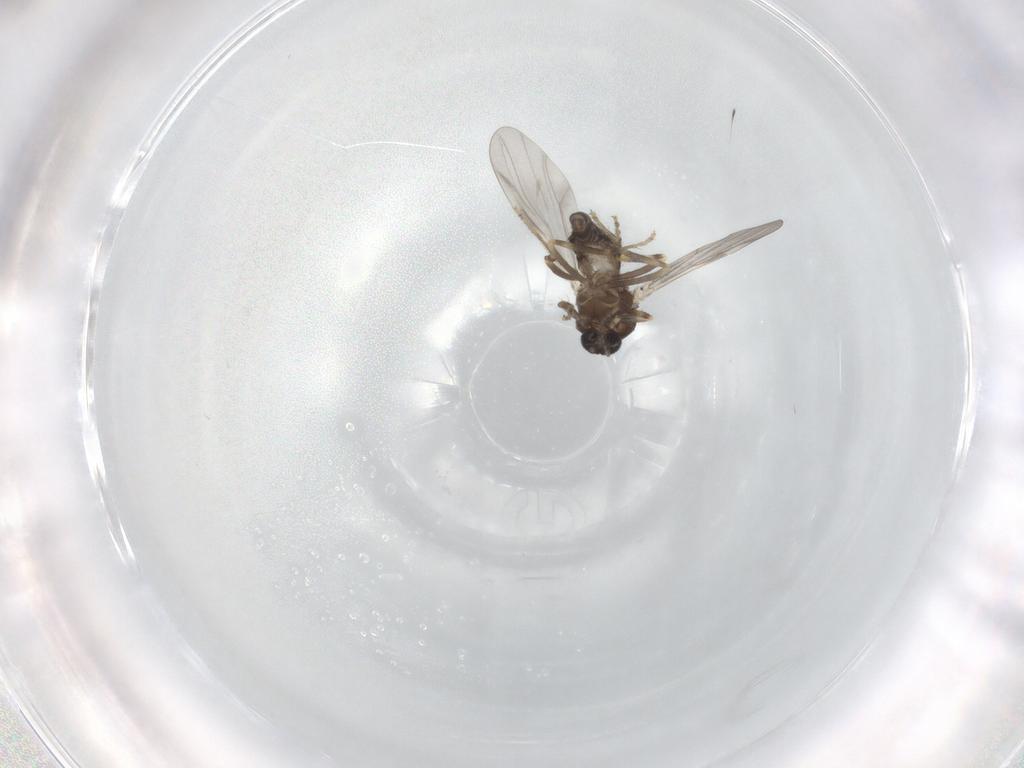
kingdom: Animalia
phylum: Arthropoda
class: Insecta
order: Diptera
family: Ceratopogonidae
